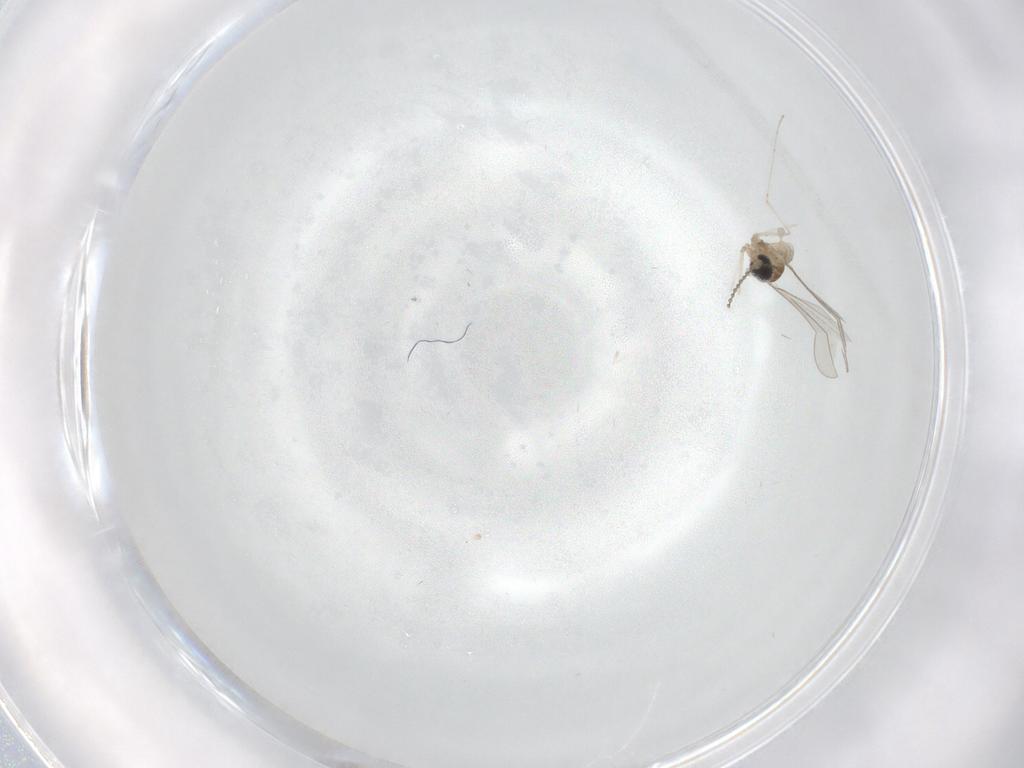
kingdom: Animalia
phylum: Arthropoda
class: Insecta
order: Diptera
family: Cecidomyiidae
